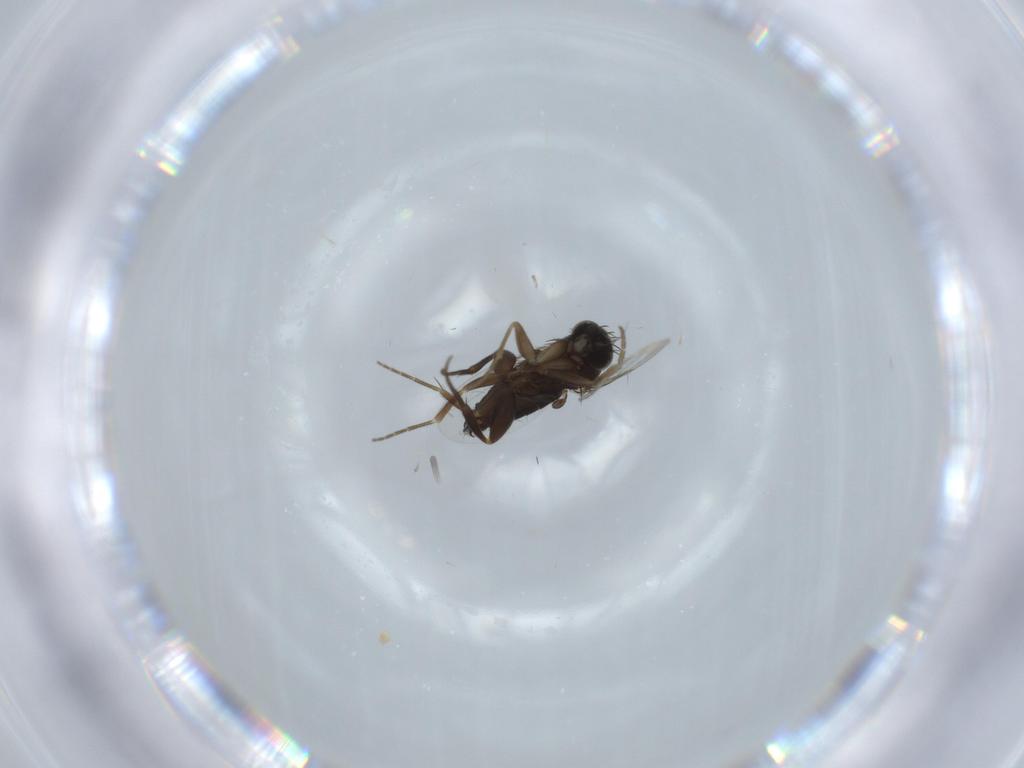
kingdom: Animalia
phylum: Arthropoda
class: Insecta
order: Diptera
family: Phoridae
